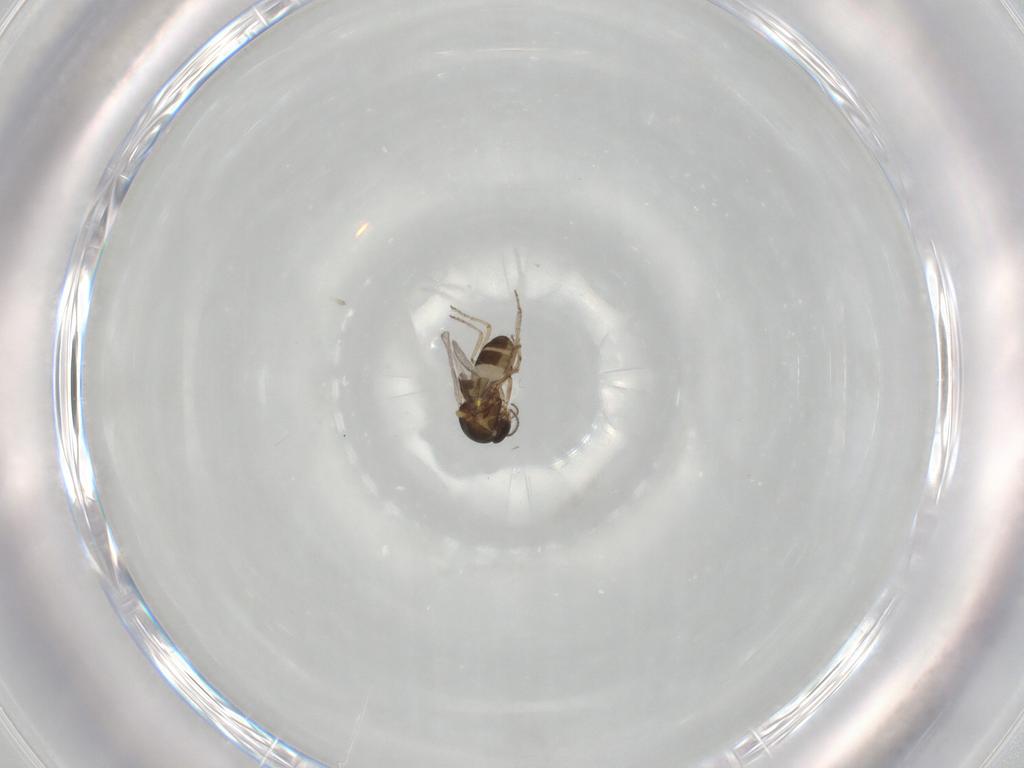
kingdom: Animalia
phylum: Arthropoda
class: Insecta
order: Diptera
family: Ceratopogonidae
